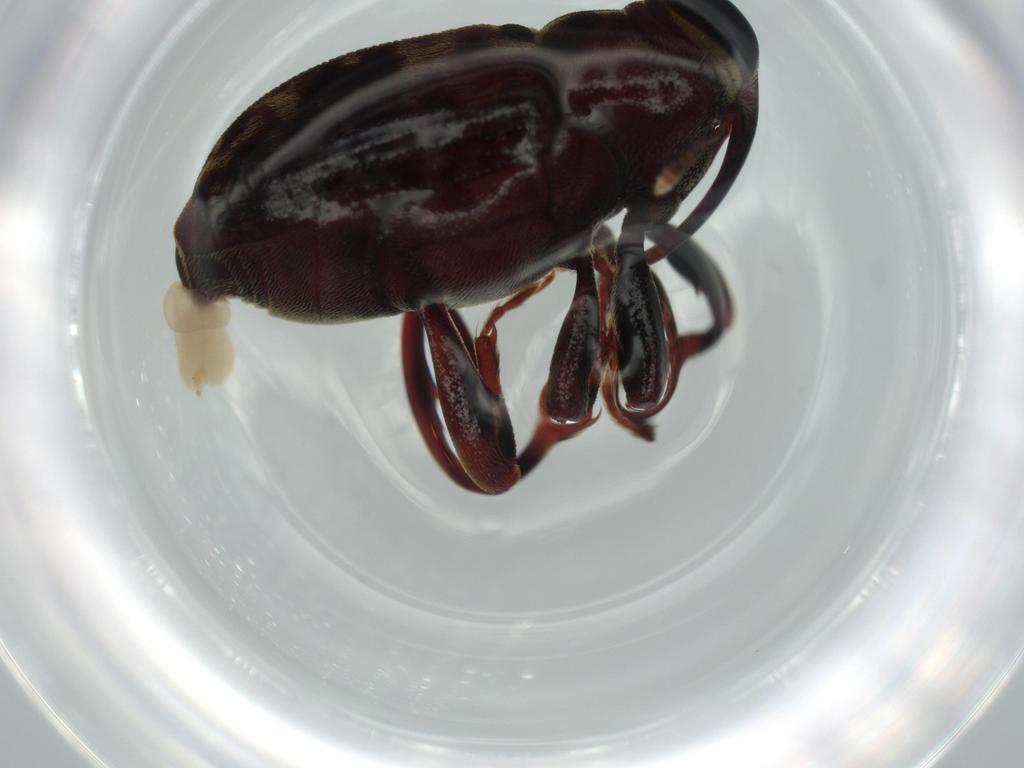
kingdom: Animalia
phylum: Arthropoda
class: Insecta
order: Coleoptera
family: Curculionidae
